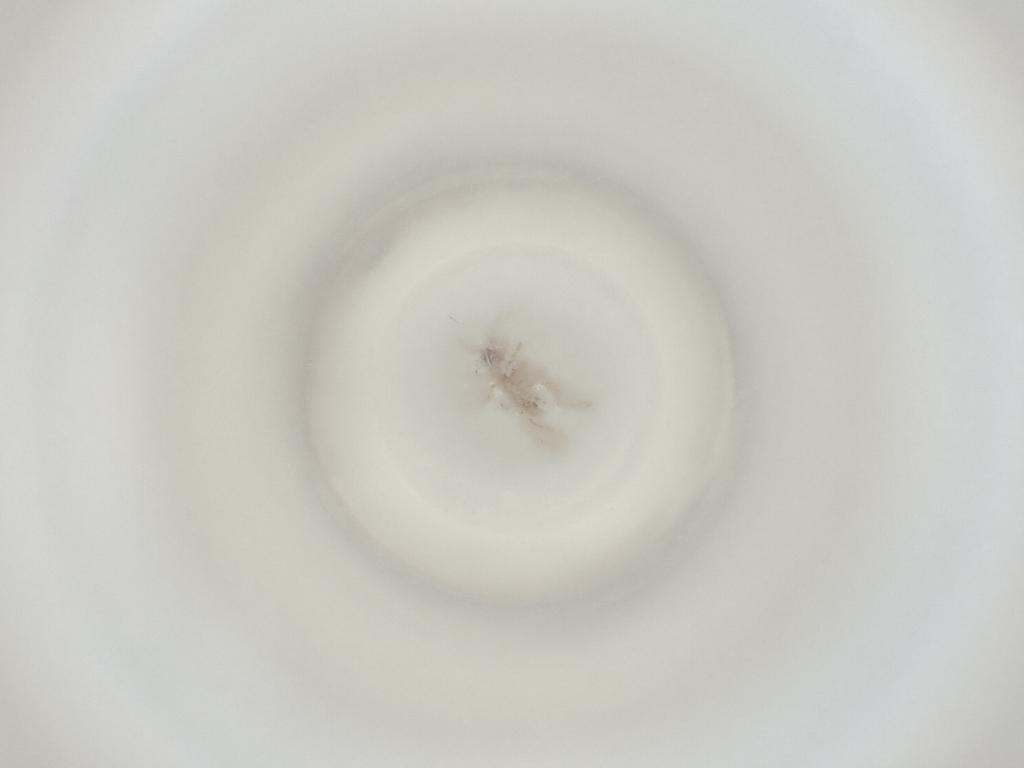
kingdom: Animalia
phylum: Arthropoda
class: Insecta
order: Diptera
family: Cecidomyiidae
